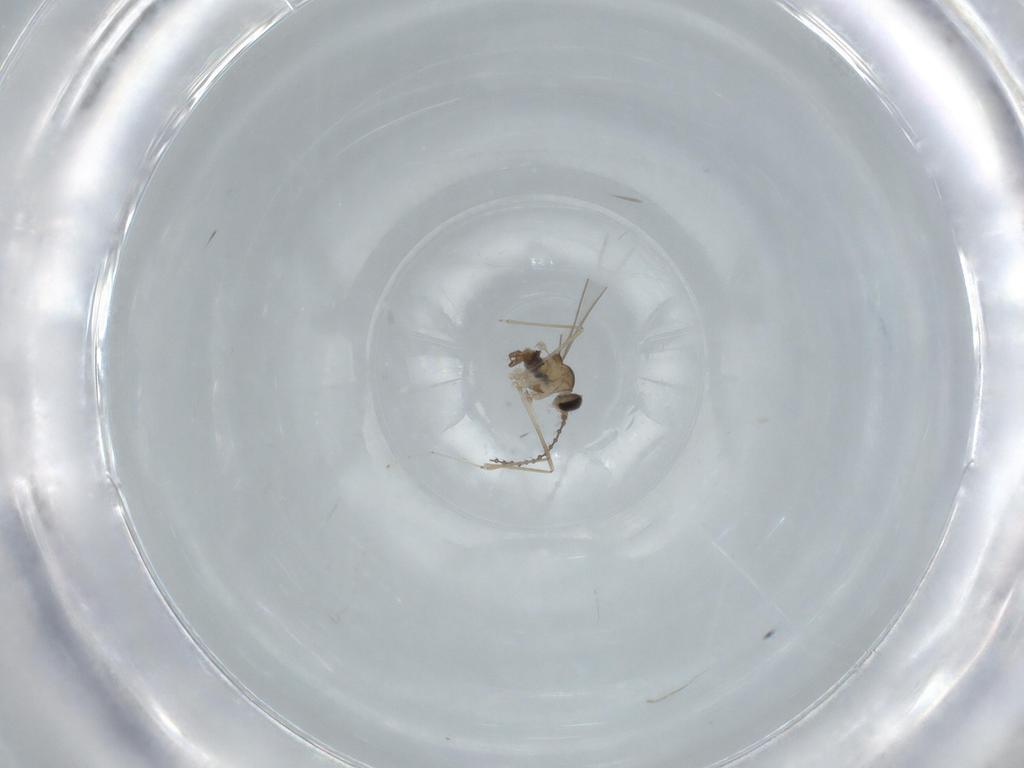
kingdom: Animalia
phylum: Arthropoda
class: Insecta
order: Diptera
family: Cecidomyiidae
